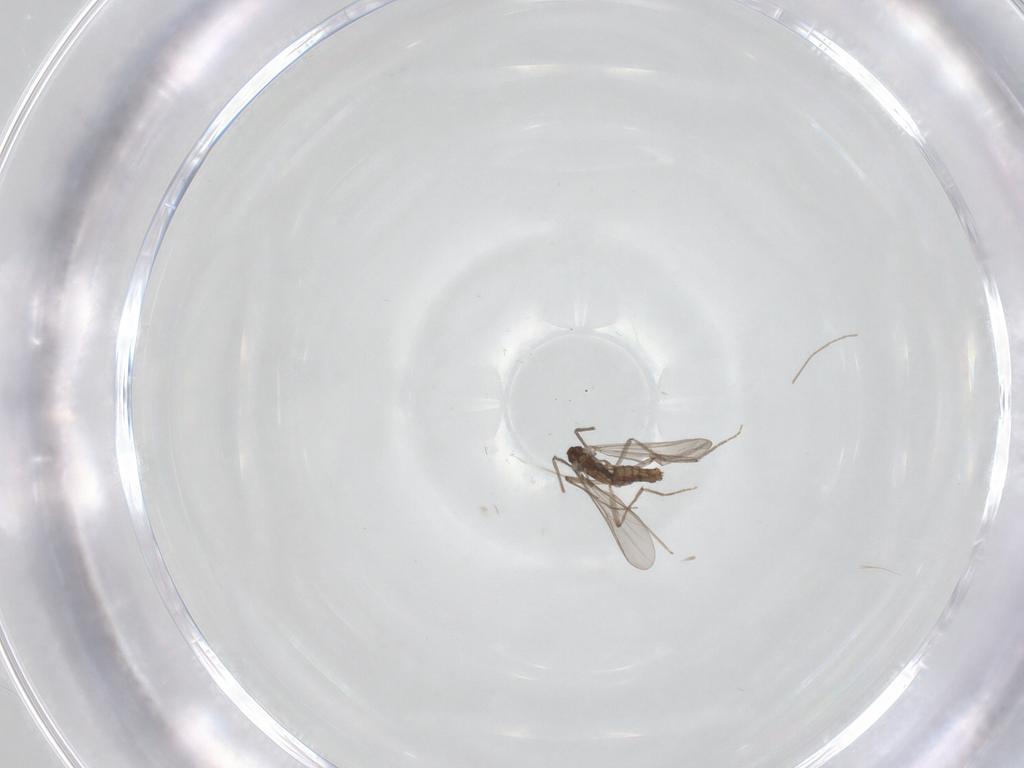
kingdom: Animalia
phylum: Arthropoda
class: Insecta
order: Diptera
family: Chironomidae
